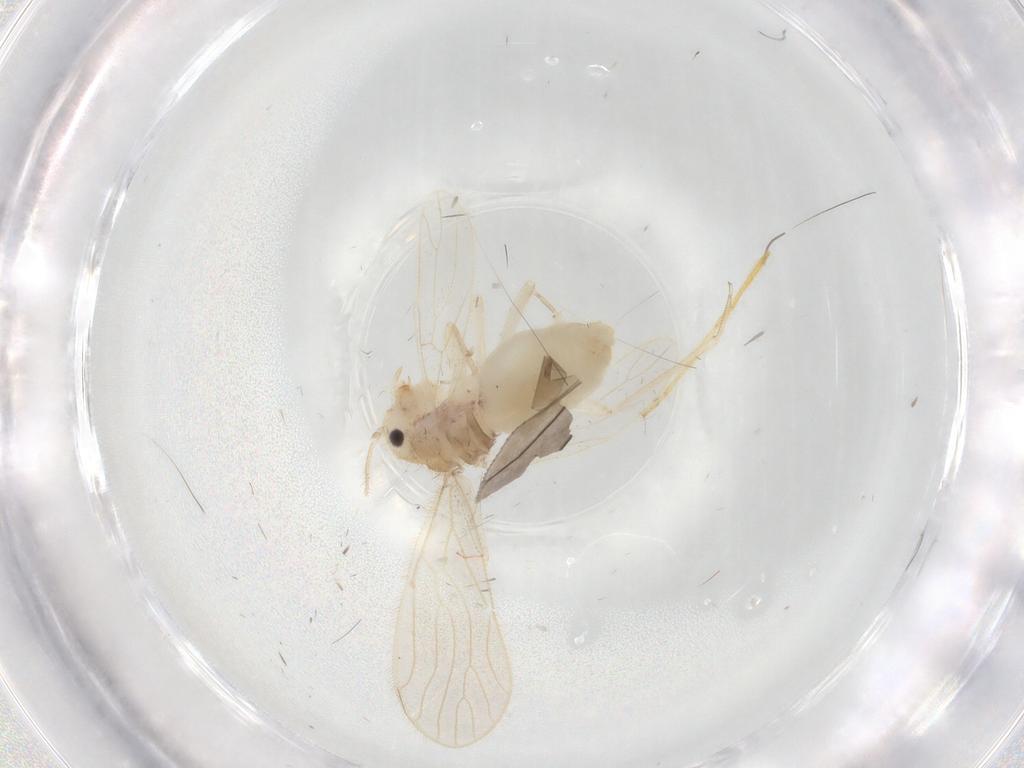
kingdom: Animalia
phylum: Arthropoda
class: Insecta
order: Psocodea
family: Cladiopsocidae
